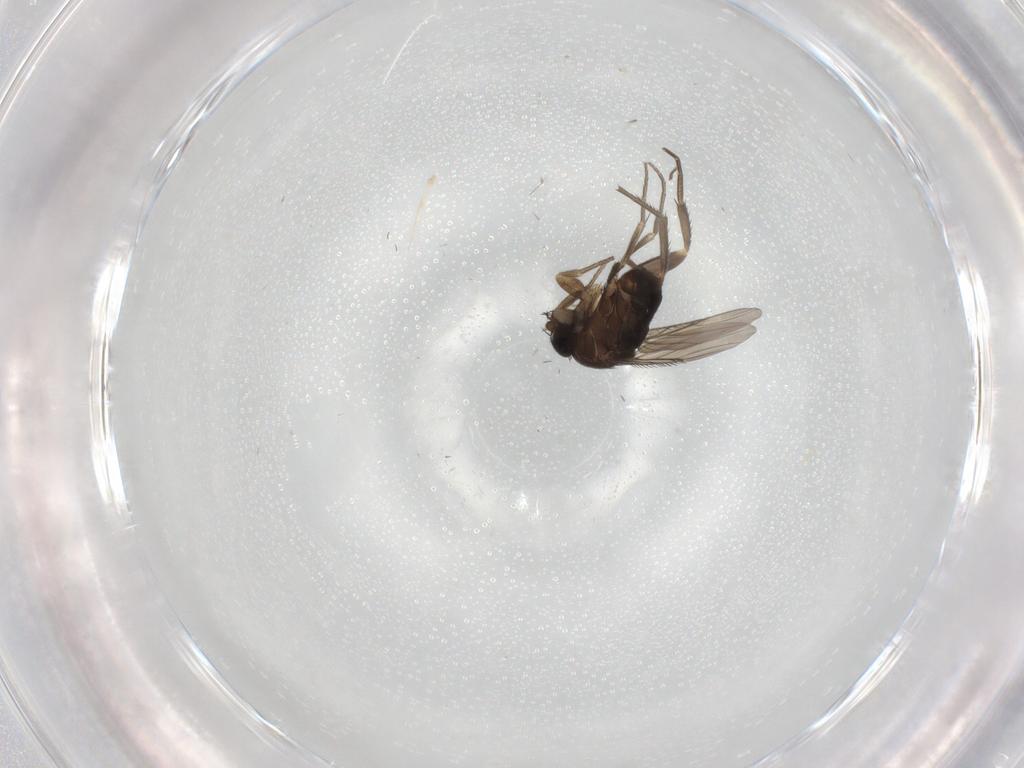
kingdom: Animalia
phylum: Arthropoda
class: Insecta
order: Diptera
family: Phoridae
